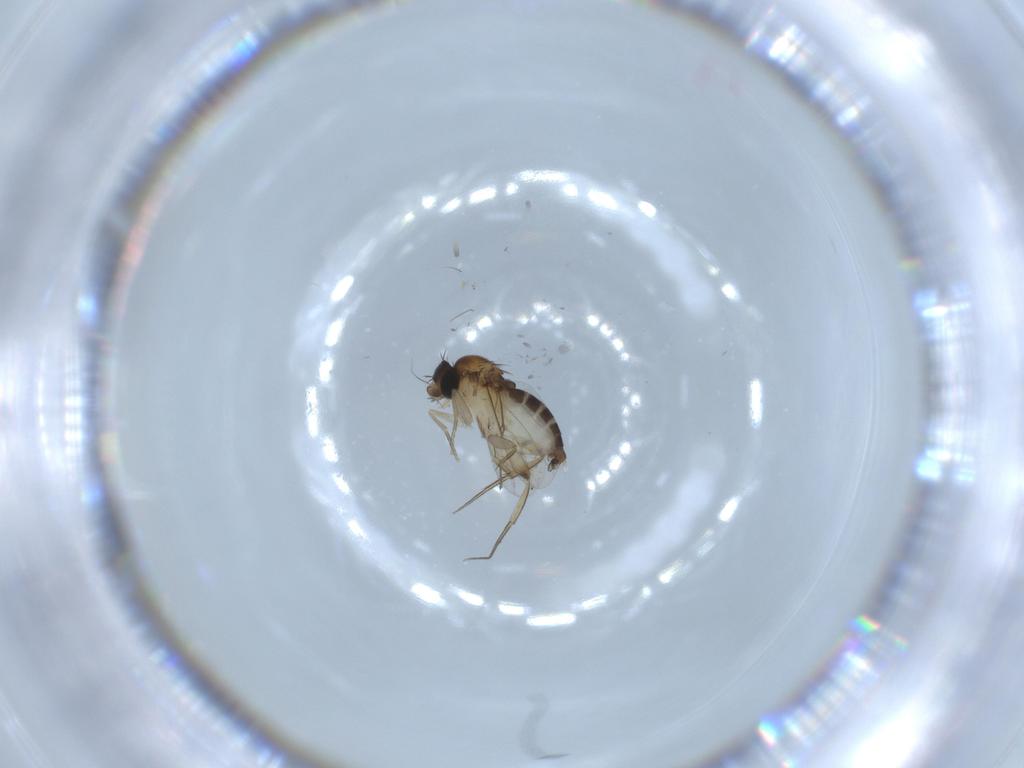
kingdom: Animalia
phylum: Arthropoda
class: Insecta
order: Diptera
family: Phoridae
